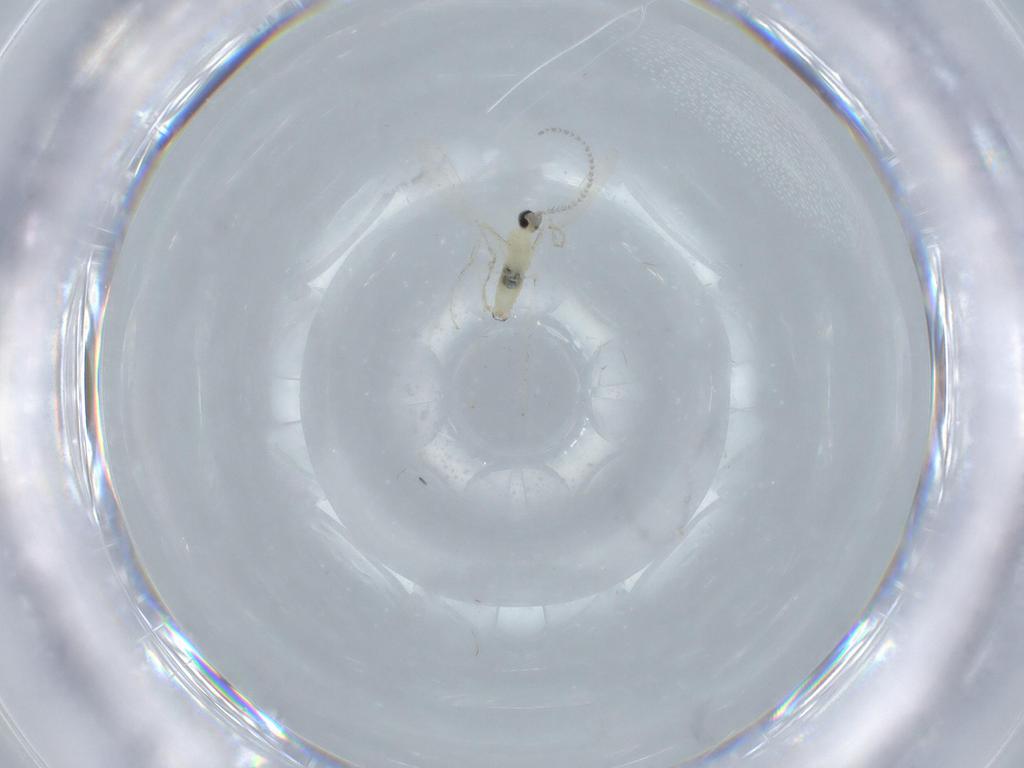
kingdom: Animalia
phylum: Arthropoda
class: Insecta
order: Diptera
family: Cecidomyiidae
